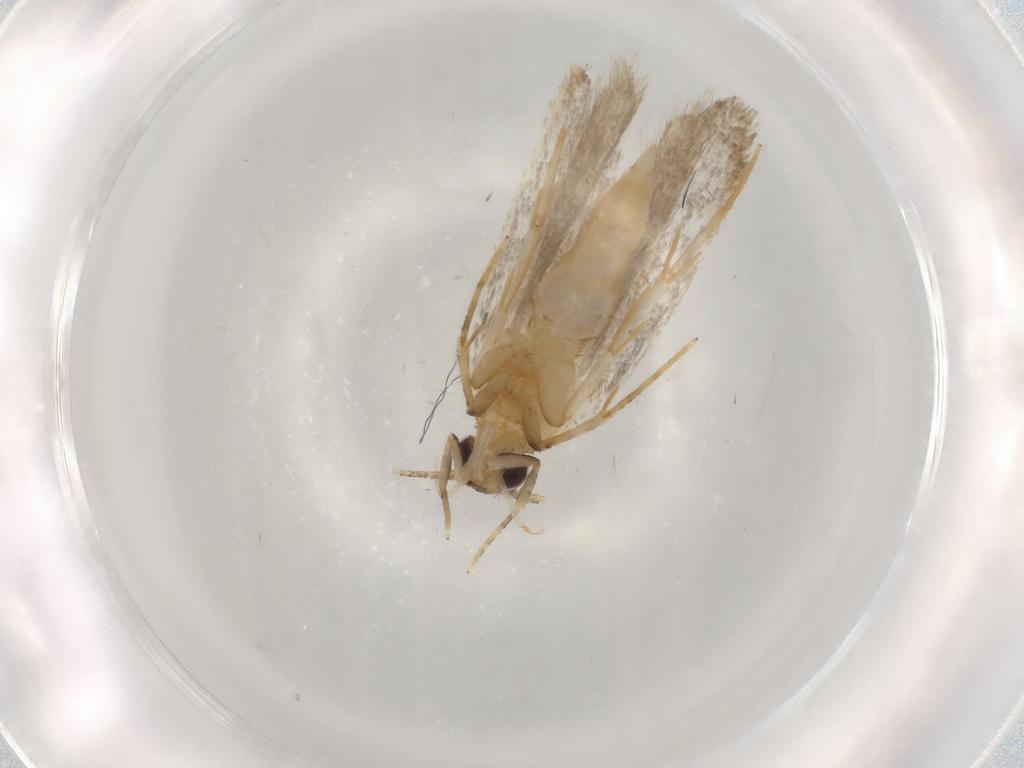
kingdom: Animalia
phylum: Arthropoda
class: Insecta
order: Lepidoptera
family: Autostichidae
